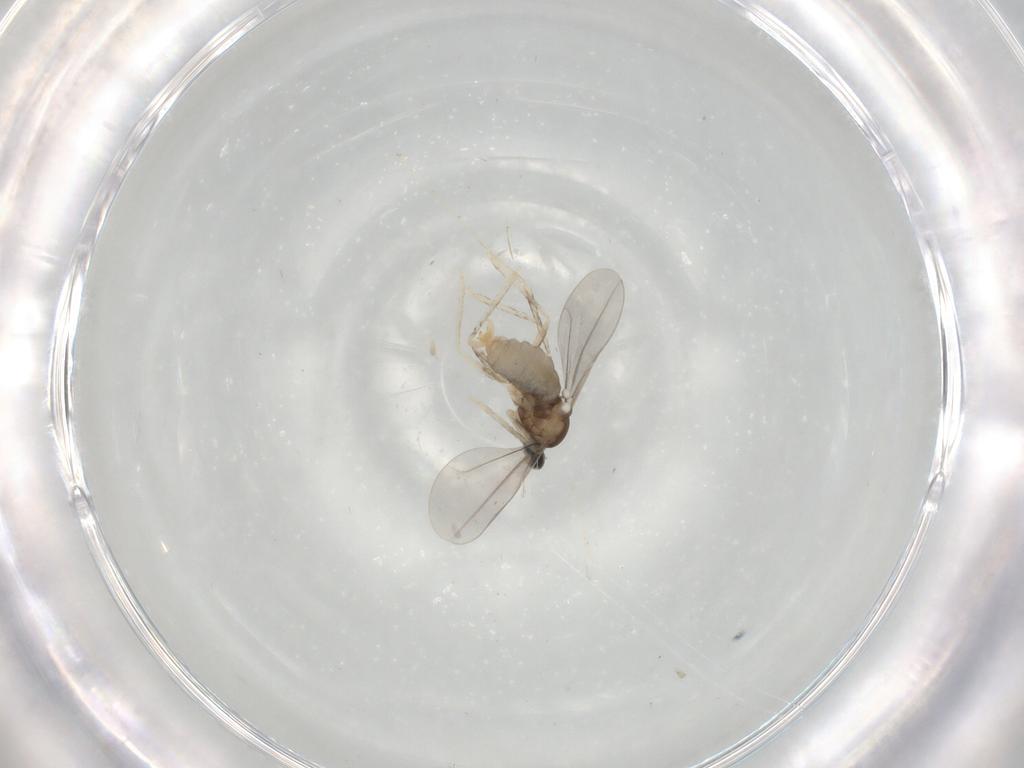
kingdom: Animalia
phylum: Arthropoda
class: Insecta
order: Diptera
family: Cecidomyiidae
